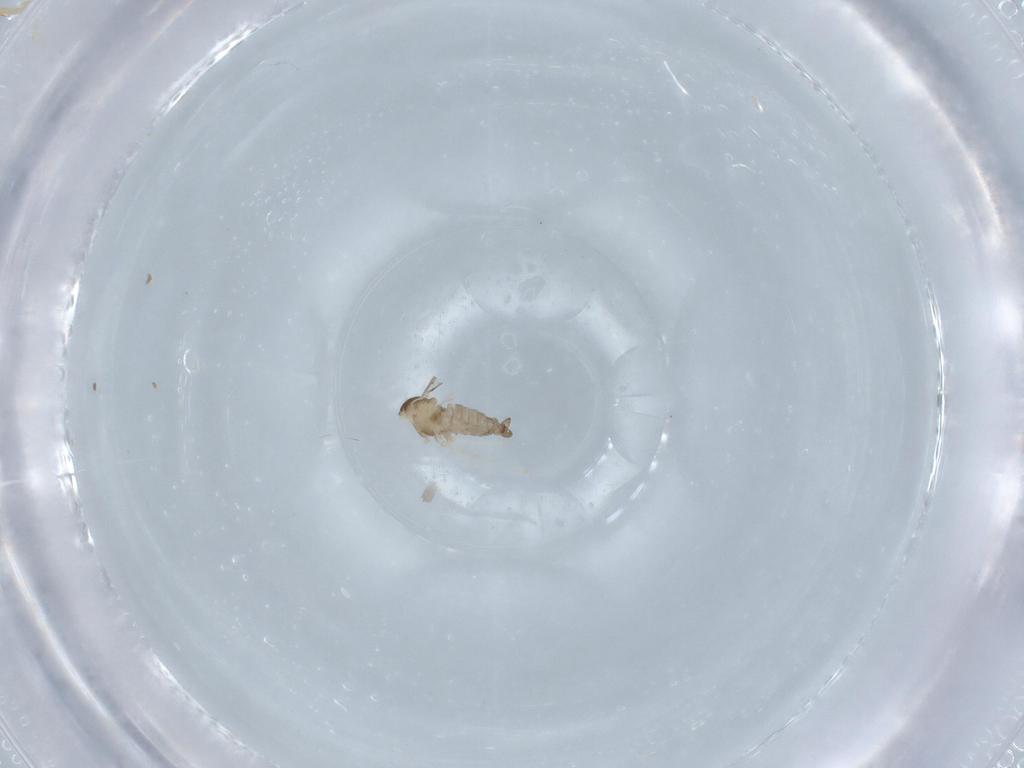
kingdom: Animalia
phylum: Arthropoda
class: Insecta
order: Diptera
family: Cecidomyiidae
